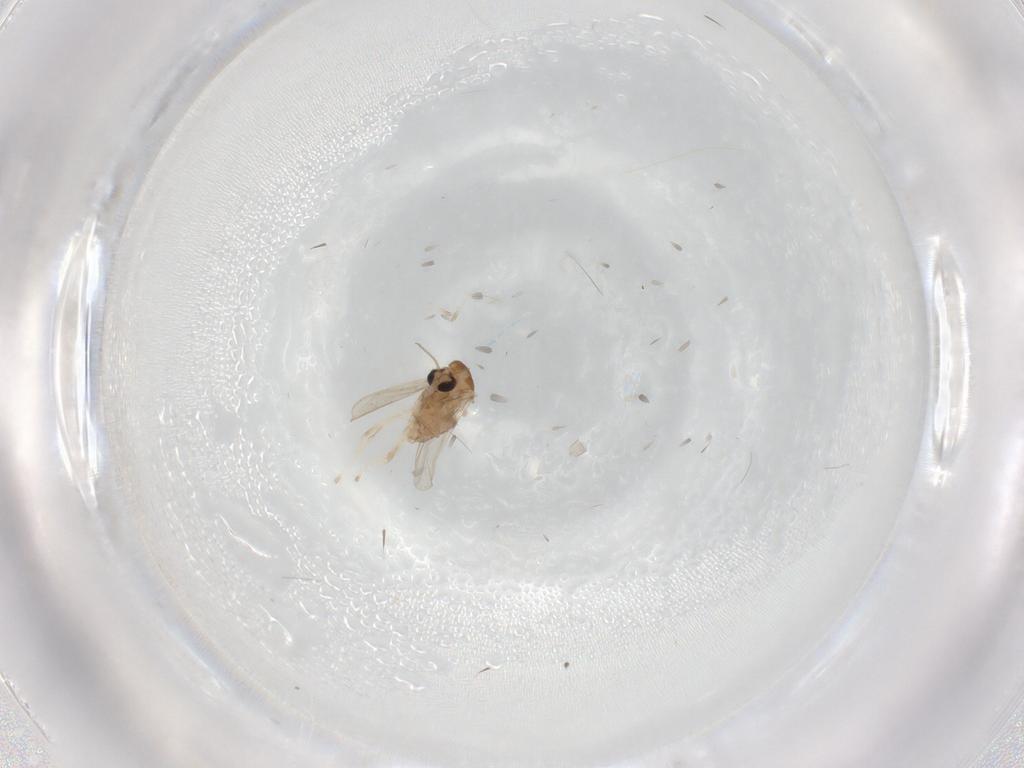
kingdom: Animalia
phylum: Arthropoda
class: Insecta
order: Diptera
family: Chironomidae
